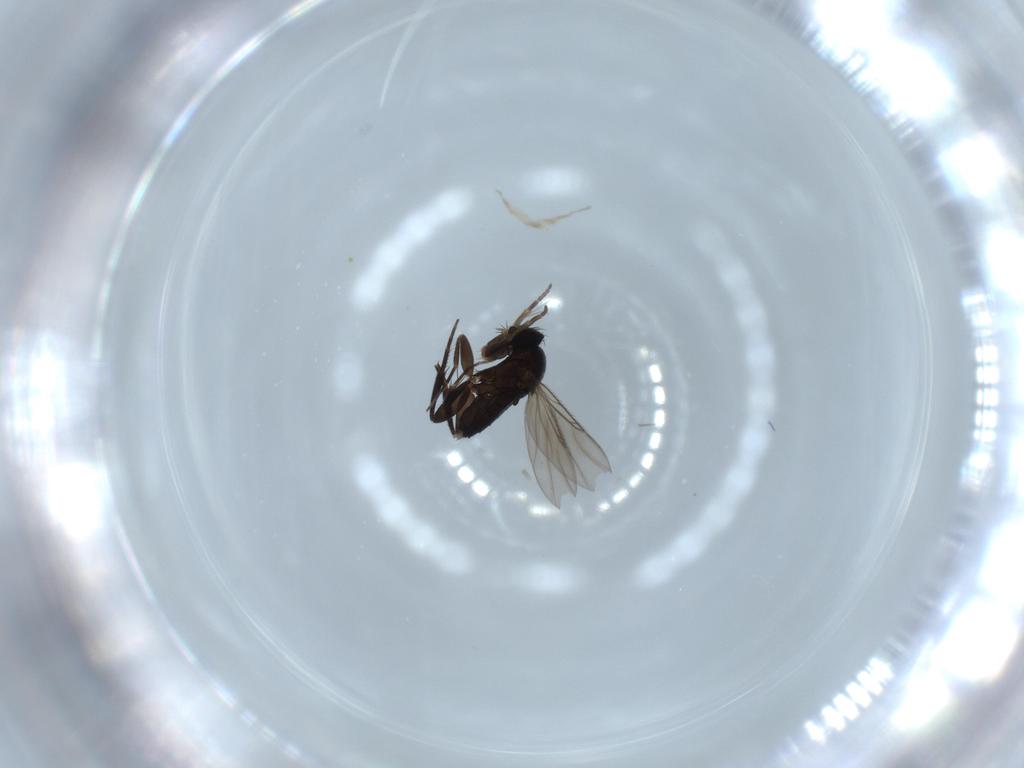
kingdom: Animalia
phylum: Arthropoda
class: Insecta
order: Diptera
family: Phoridae
